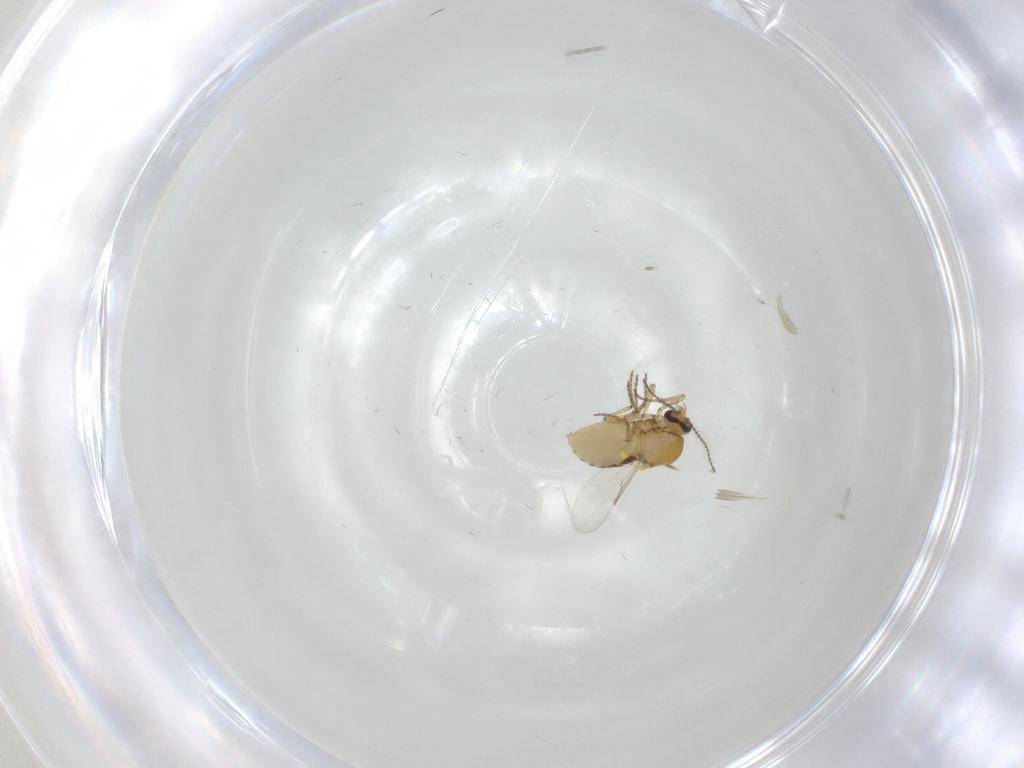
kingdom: Animalia
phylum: Arthropoda
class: Insecta
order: Diptera
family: Ceratopogonidae
